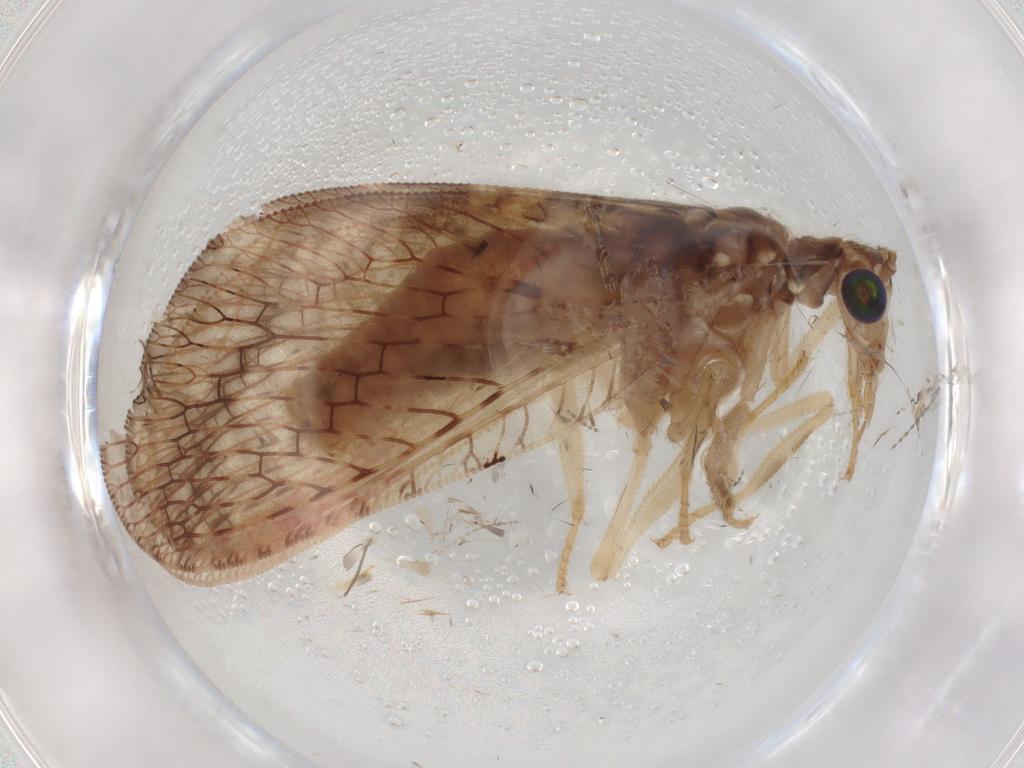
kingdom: Animalia
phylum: Arthropoda
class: Insecta
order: Neuroptera
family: Hemerobiidae
